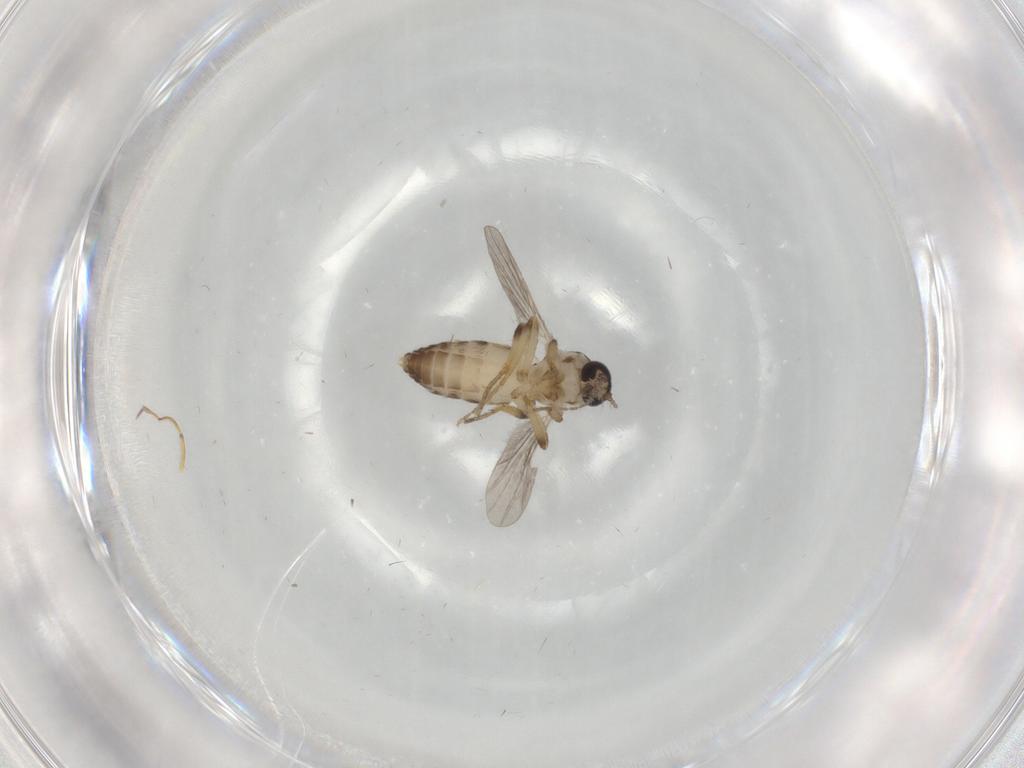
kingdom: Animalia
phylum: Arthropoda
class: Insecta
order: Diptera
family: Ceratopogonidae
